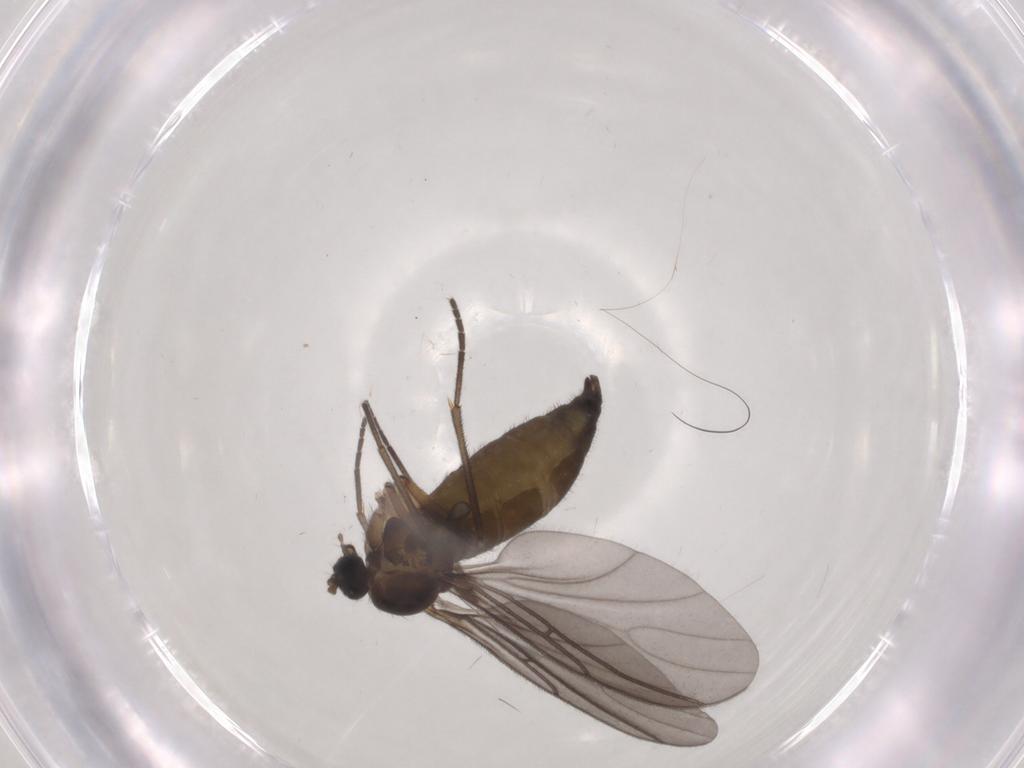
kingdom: Animalia
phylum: Arthropoda
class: Insecta
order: Diptera
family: Sciaridae
